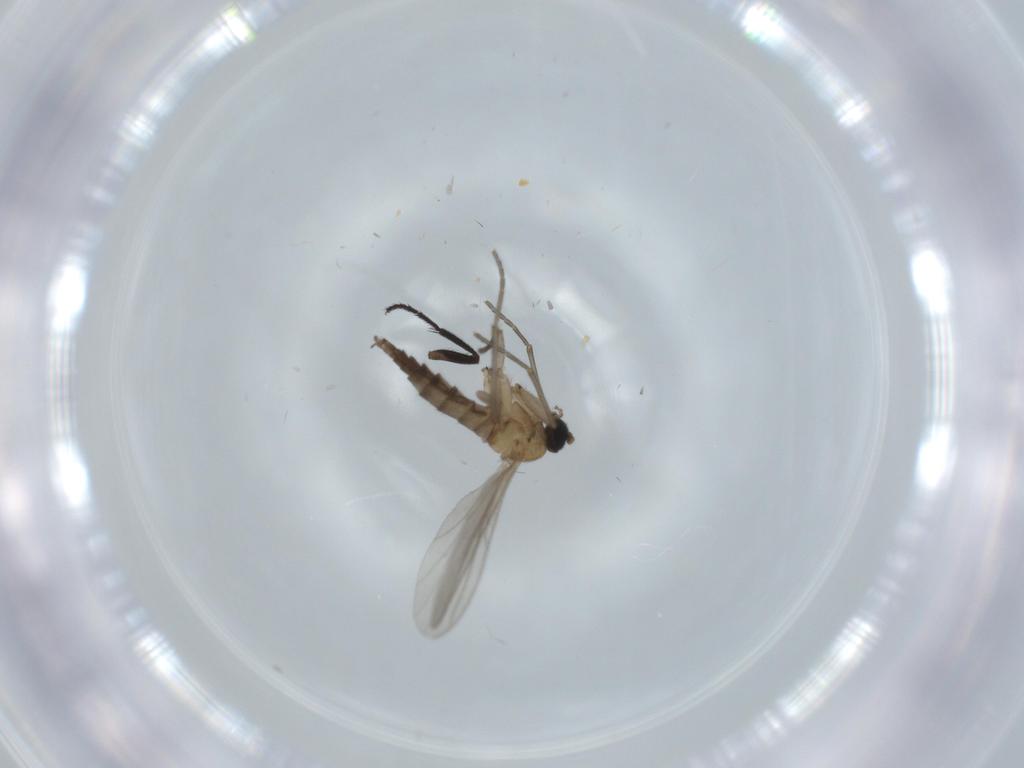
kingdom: Animalia
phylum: Arthropoda
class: Insecta
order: Diptera
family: Sciaridae
